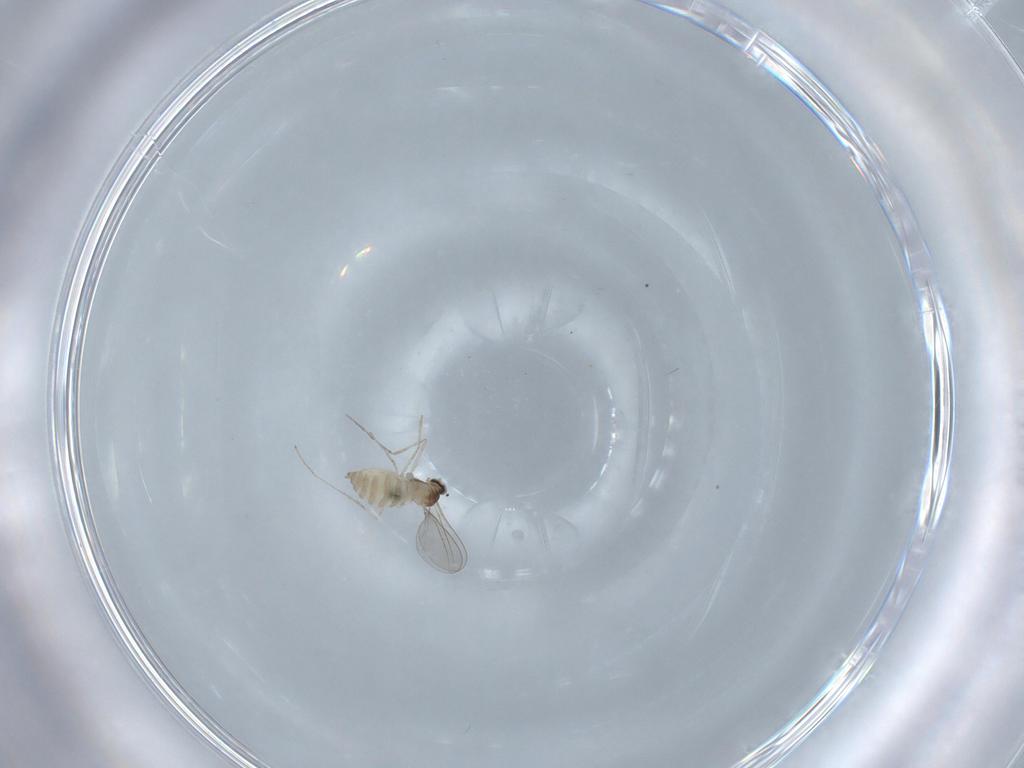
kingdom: Animalia
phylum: Arthropoda
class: Insecta
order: Diptera
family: Cecidomyiidae
